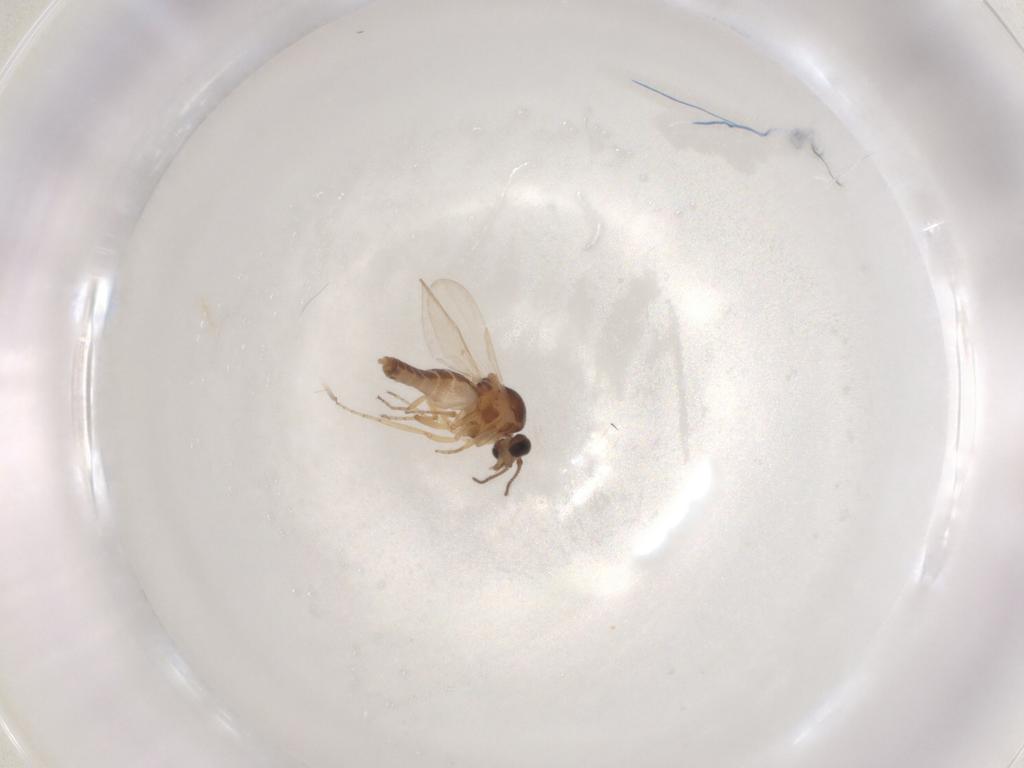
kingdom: Animalia
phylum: Arthropoda
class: Insecta
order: Diptera
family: Ceratopogonidae
